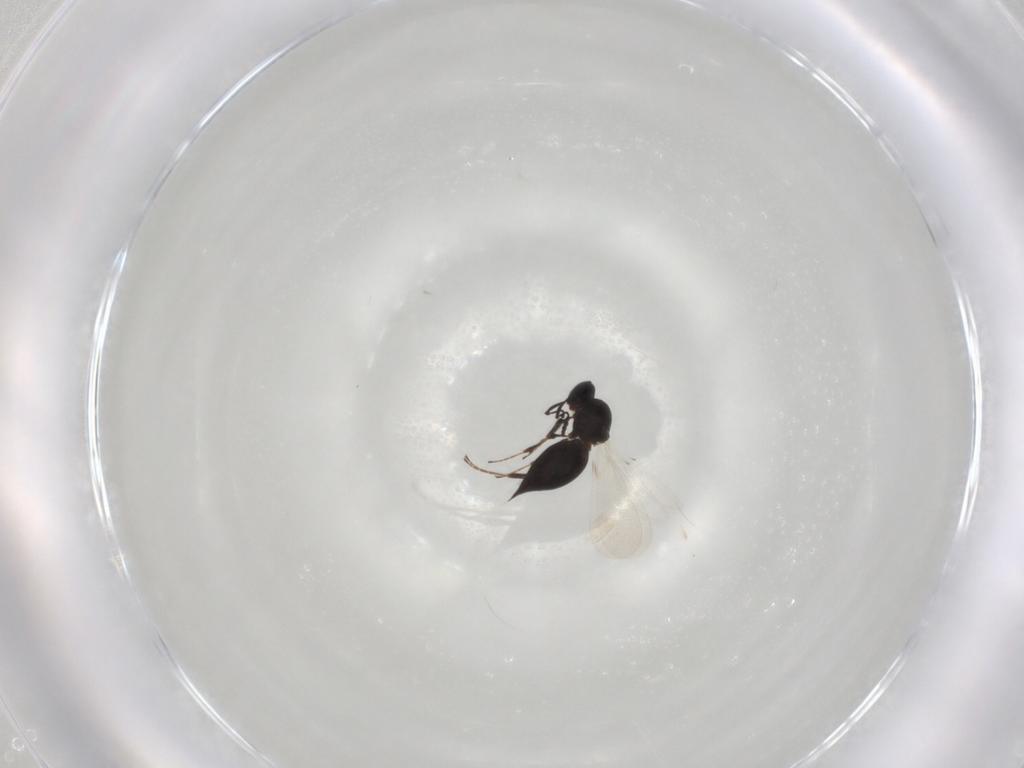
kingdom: Animalia
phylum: Arthropoda
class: Insecta
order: Hymenoptera
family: Platygastridae
